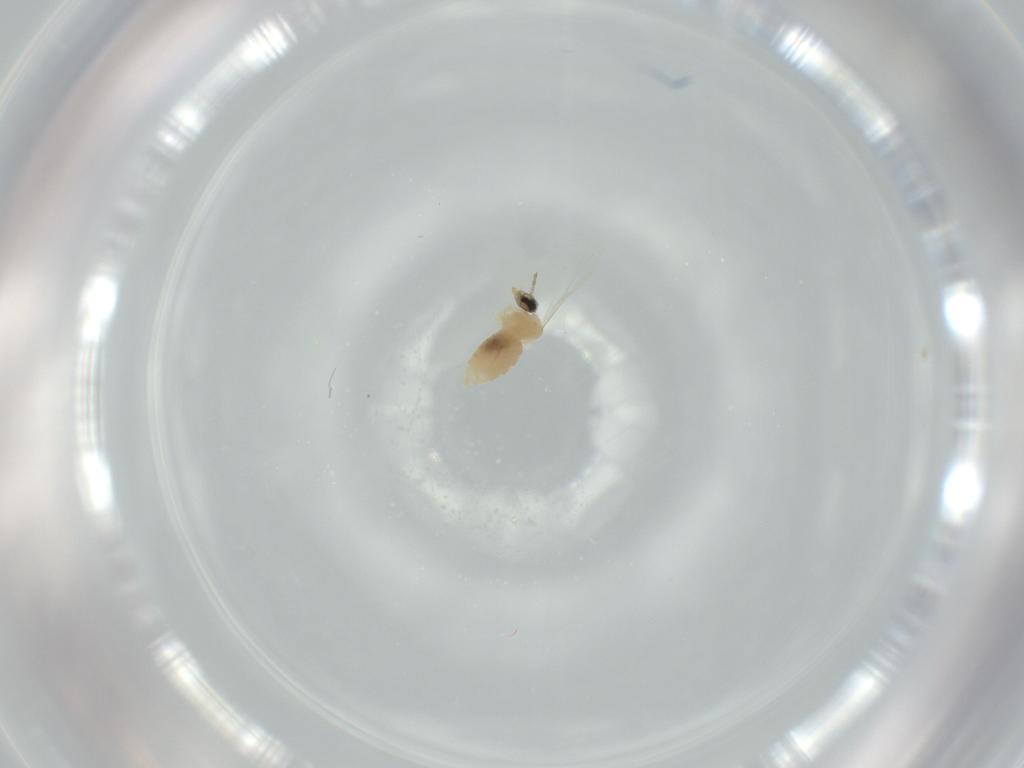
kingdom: Animalia
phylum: Arthropoda
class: Insecta
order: Diptera
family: Cecidomyiidae
